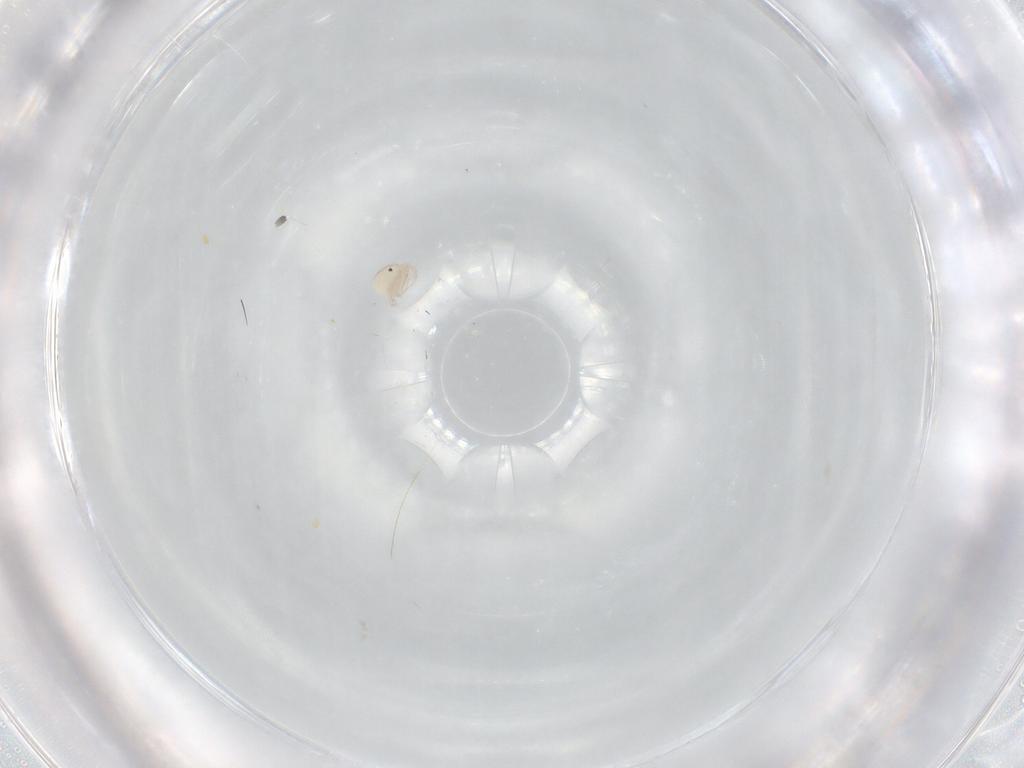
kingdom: Animalia
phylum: Arthropoda
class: Arachnida
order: Trombidiformes
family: Lebertiidae
